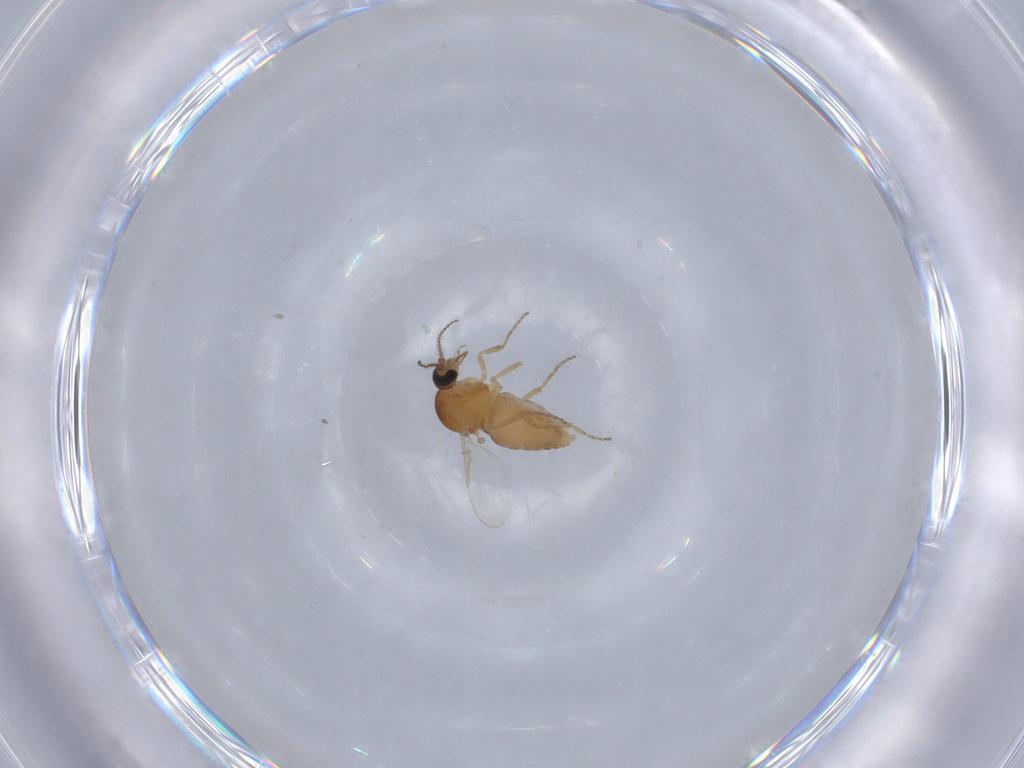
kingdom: Animalia
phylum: Arthropoda
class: Insecta
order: Diptera
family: Ceratopogonidae
